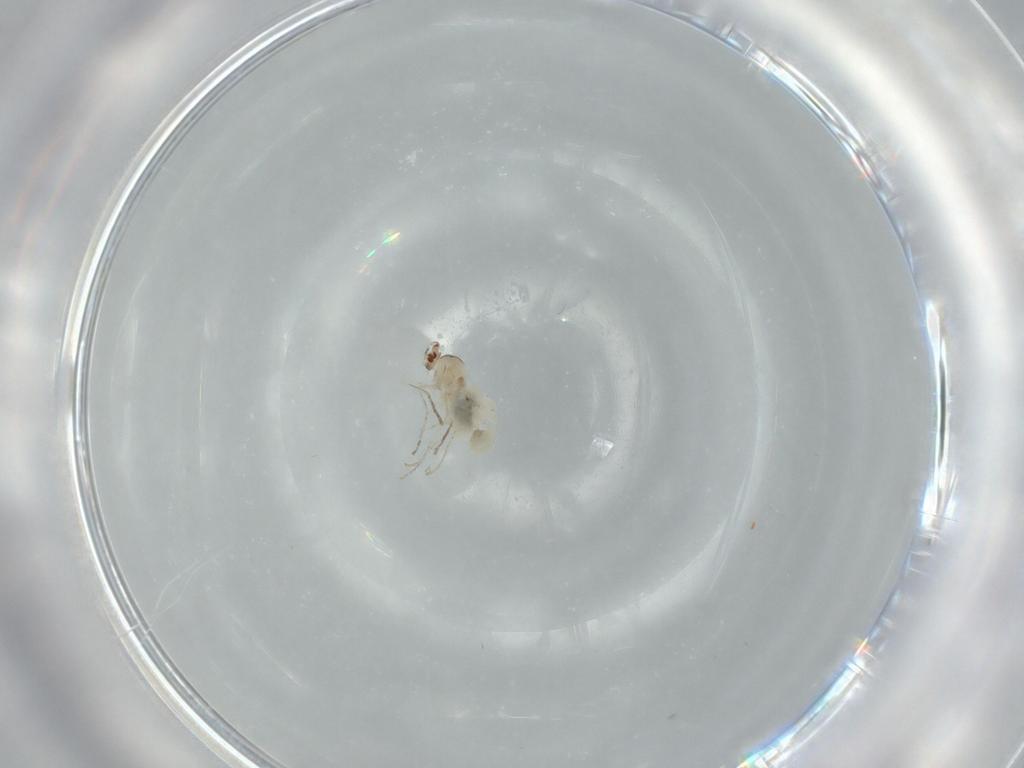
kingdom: Animalia
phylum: Arthropoda
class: Insecta
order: Diptera
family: Cecidomyiidae
